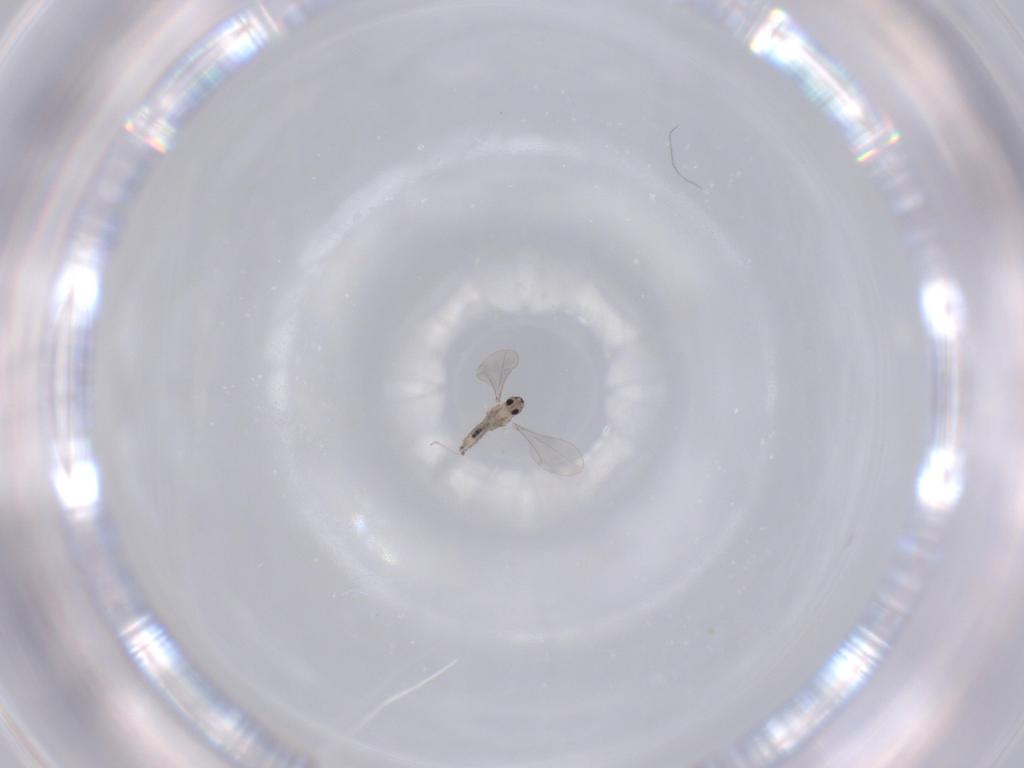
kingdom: Animalia
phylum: Arthropoda
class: Insecta
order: Diptera
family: Cecidomyiidae
